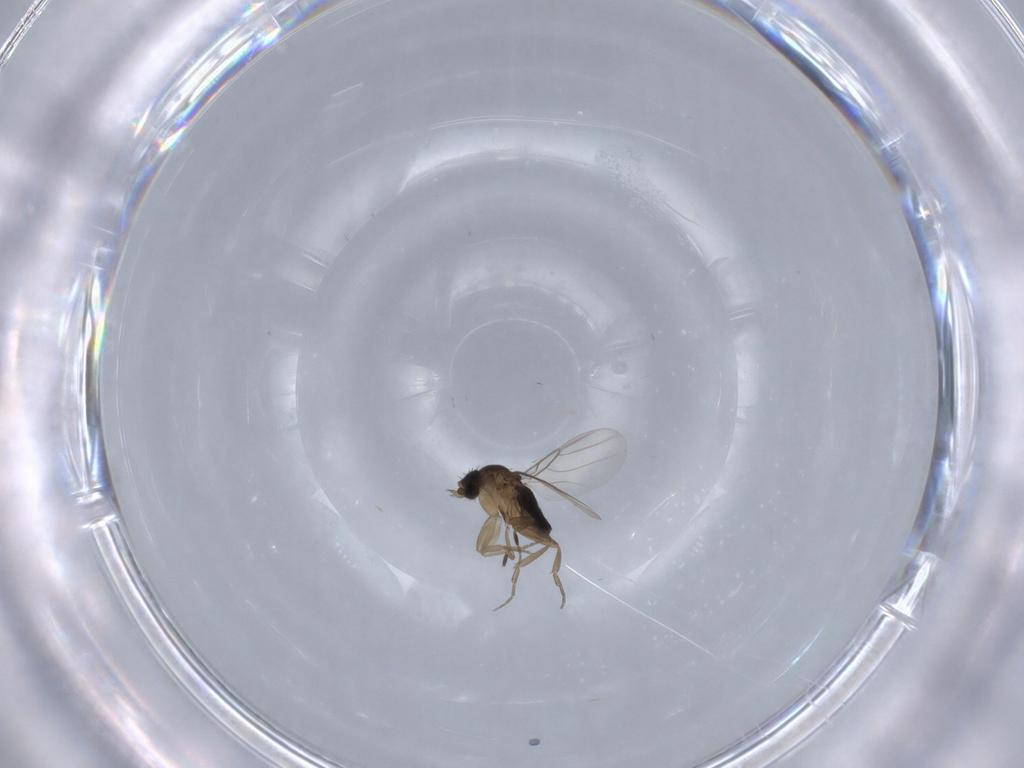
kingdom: Animalia
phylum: Arthropoda
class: Insecta
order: Diptera
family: Phoridae
